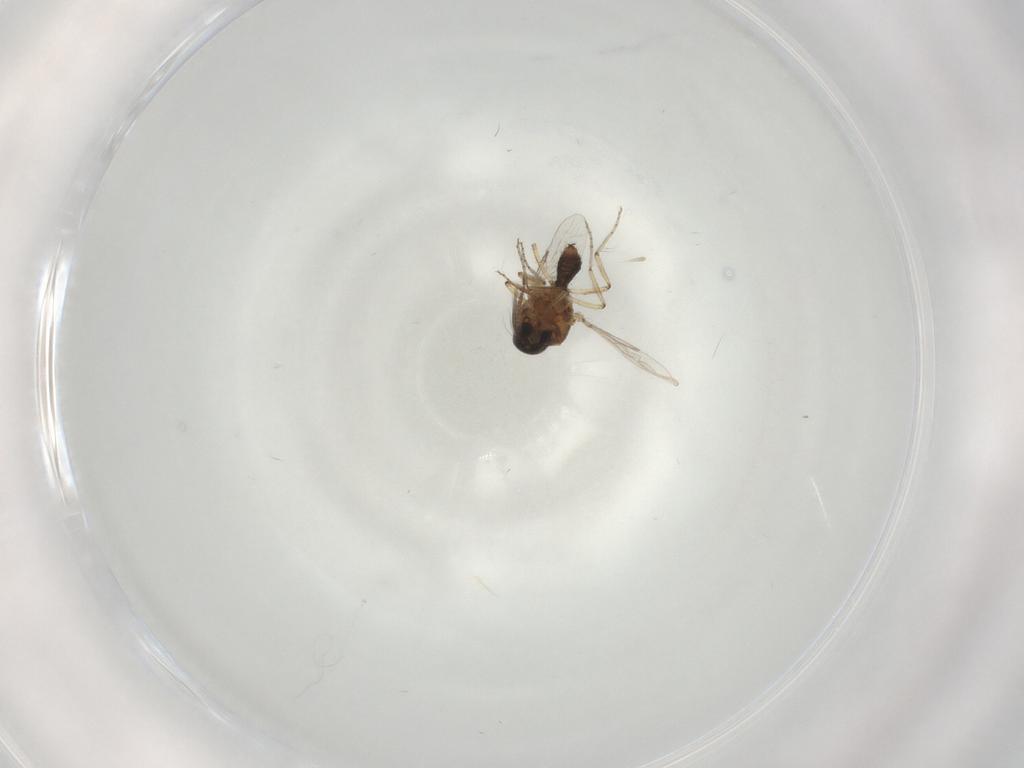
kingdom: Animalia
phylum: Arthropoda
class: Insecta
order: Diptera
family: Ceratopogonidae
